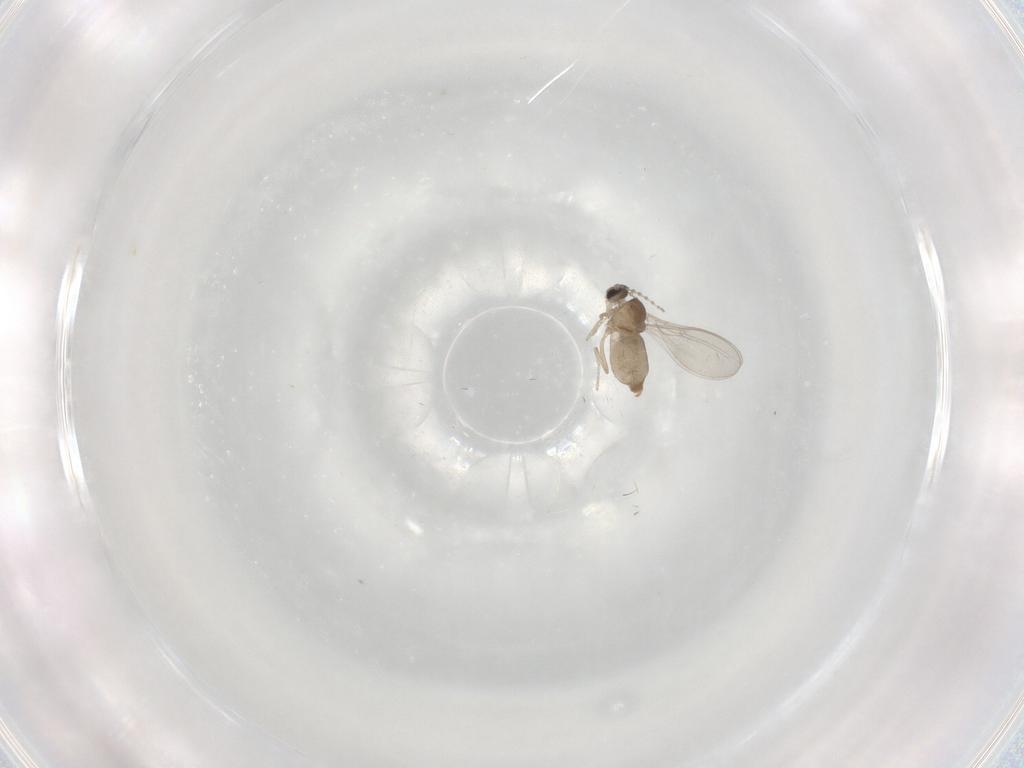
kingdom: Animalia
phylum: Arthropoda
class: Insecta
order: Diptera
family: Cecidomyiidae
